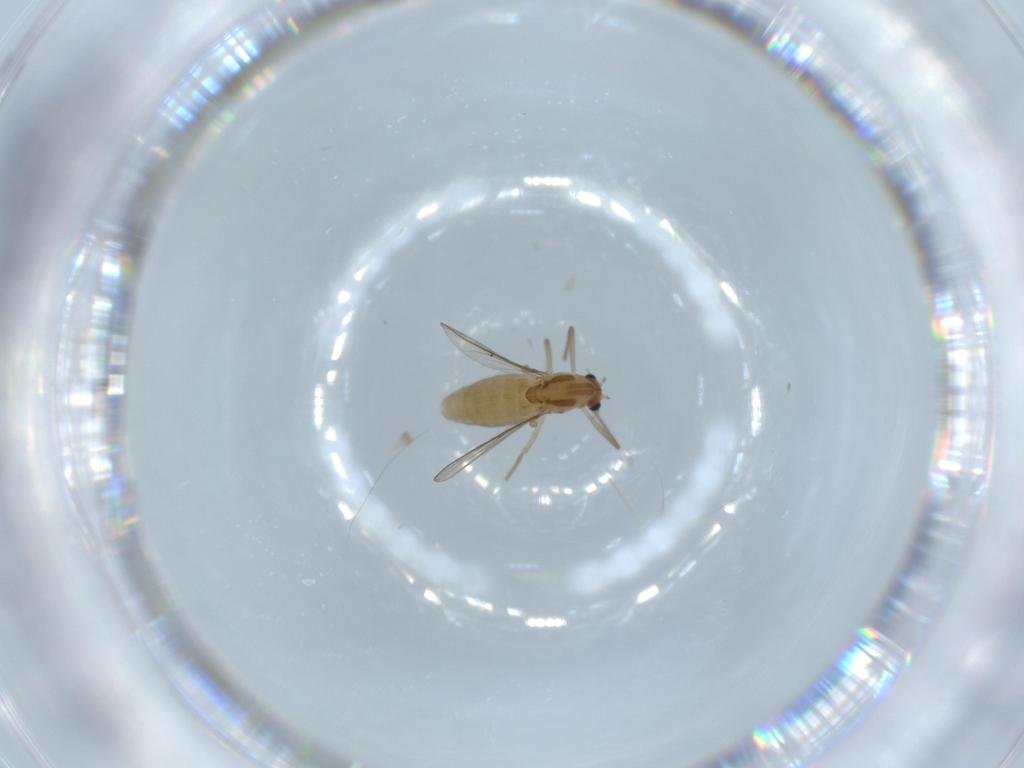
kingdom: Animalia
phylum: Arthropoda
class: Insecta
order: Diptera
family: Chironomidae
